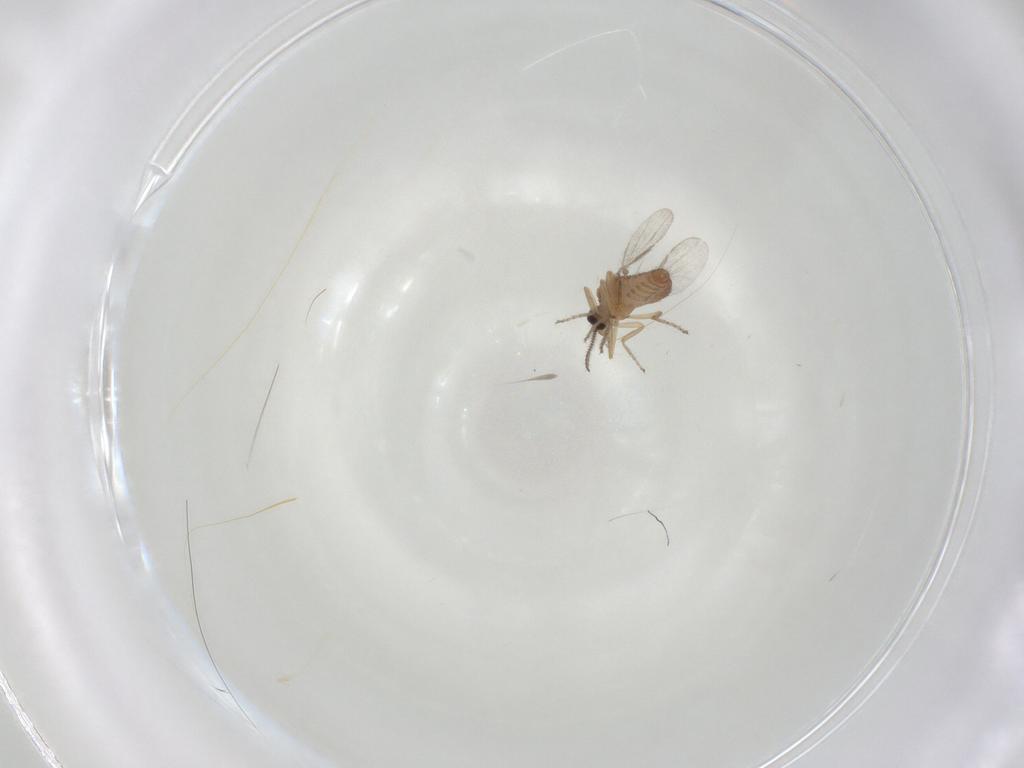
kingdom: Animalia
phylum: Arthropoda
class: Insecta
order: Diptera
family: Ceratopogonidae
